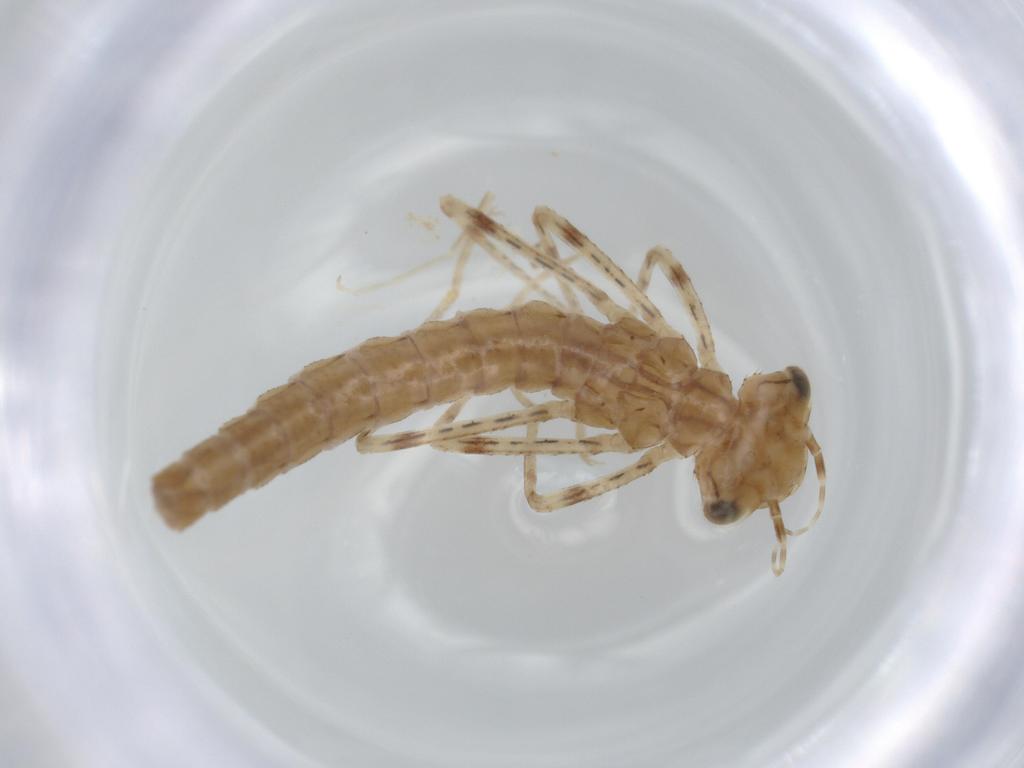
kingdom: Animalia
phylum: Arthropoda
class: Insecta
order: Odonata
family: Coenagrionidae
